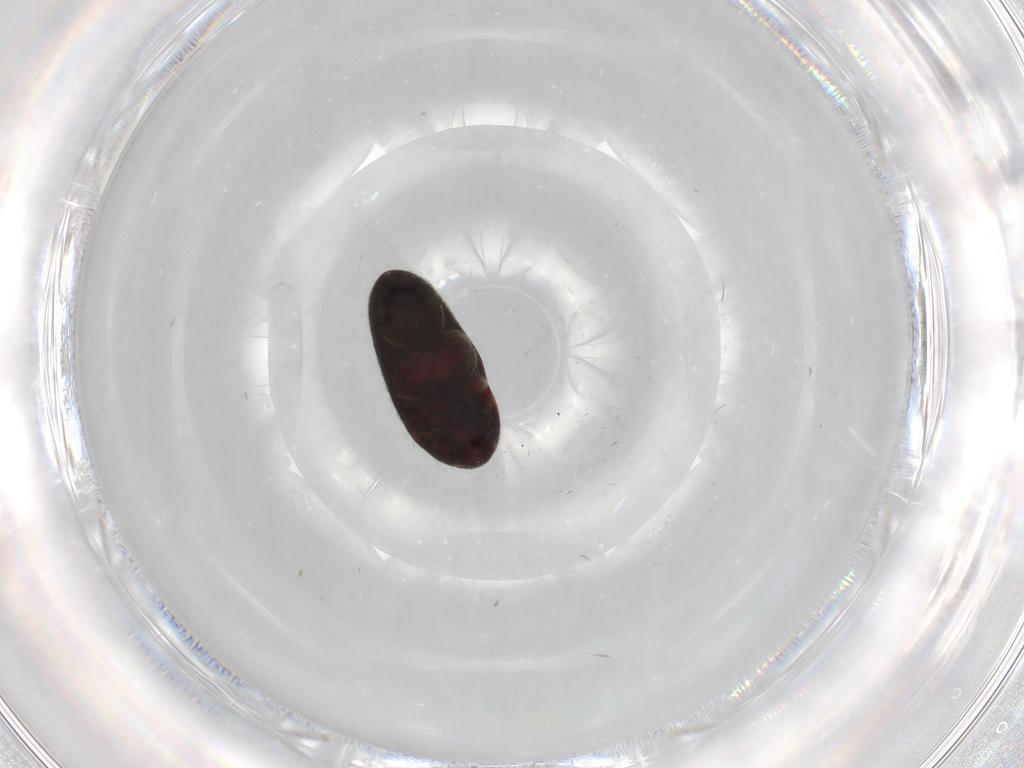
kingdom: Animalia
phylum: Arthropoda
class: Insecta
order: Coleoptera
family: Throscidae
